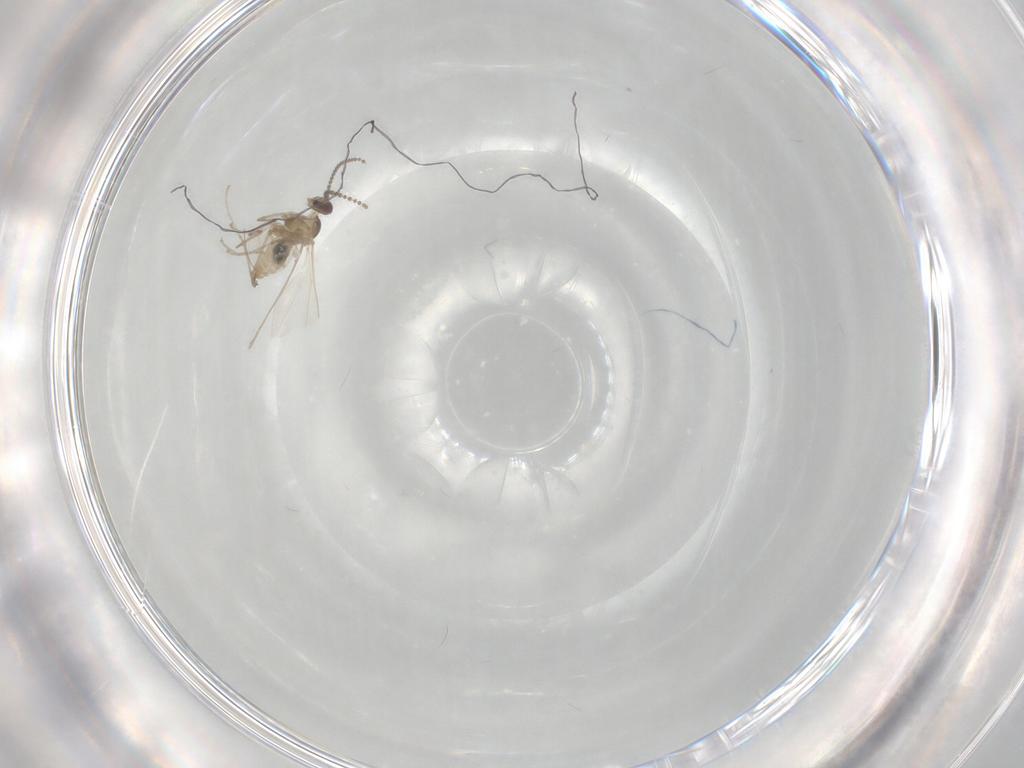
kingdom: Animalia
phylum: Arthropoda
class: Insecta
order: Diptera
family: Cecidomyiidae
